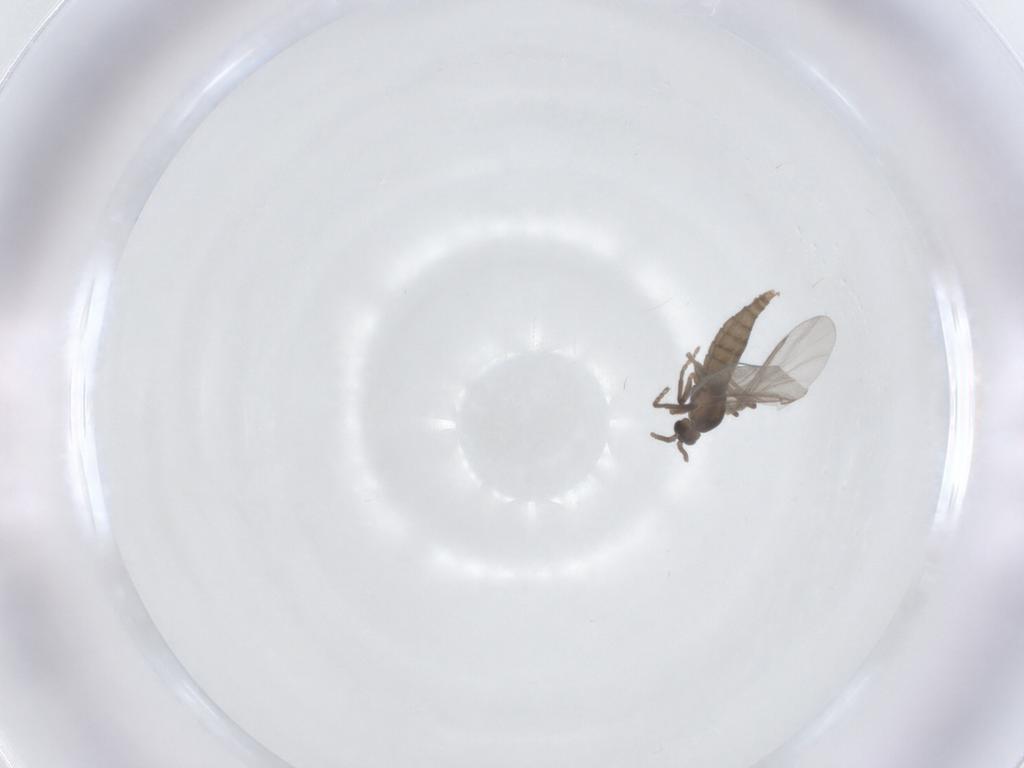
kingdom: Animalia
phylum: Arthropoda
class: Insecta
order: Diptera
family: Cecidomyiidae
